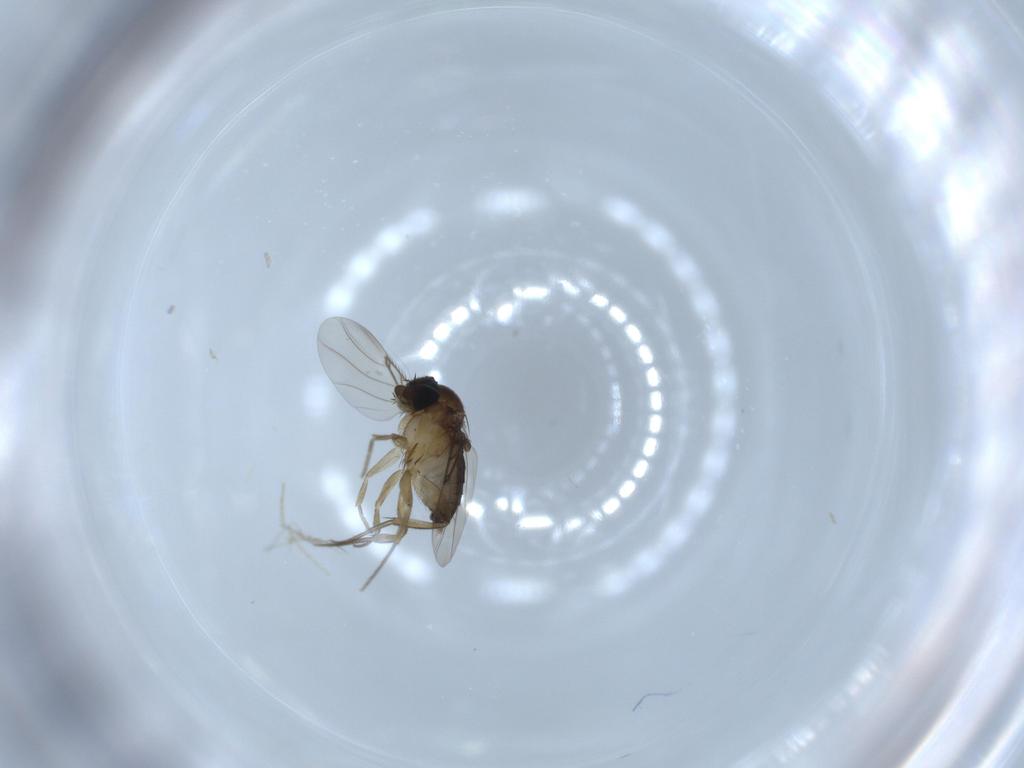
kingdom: Animalia
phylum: Arthropoda
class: Insecta
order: Diptera
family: Phoridae
